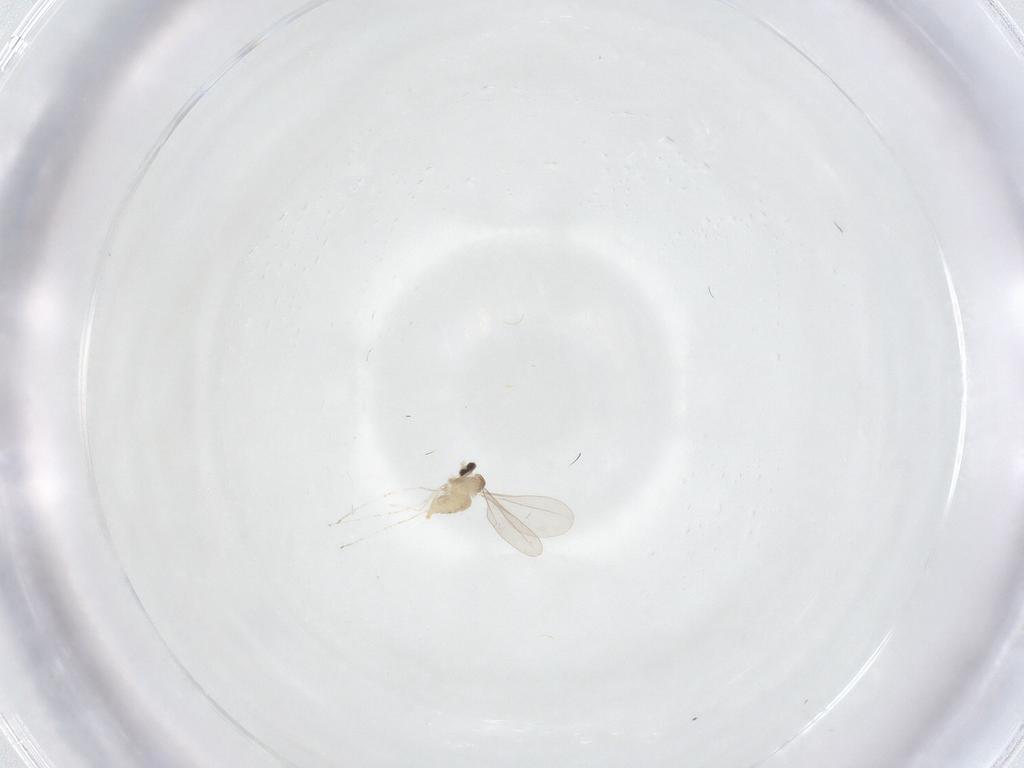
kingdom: Animalia
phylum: Arthropoda
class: Insecta
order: Diptera
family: Cecidomyiidae
